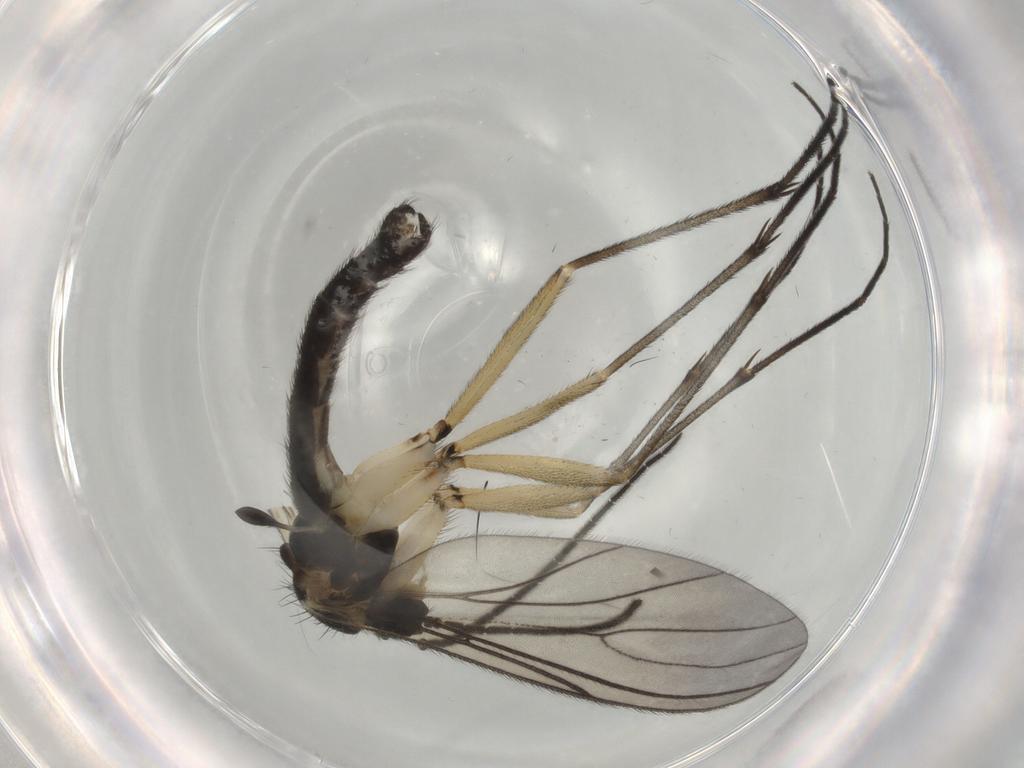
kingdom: Animalia
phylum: Arthropoda
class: Insecta
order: Diptera
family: Sciaridae
